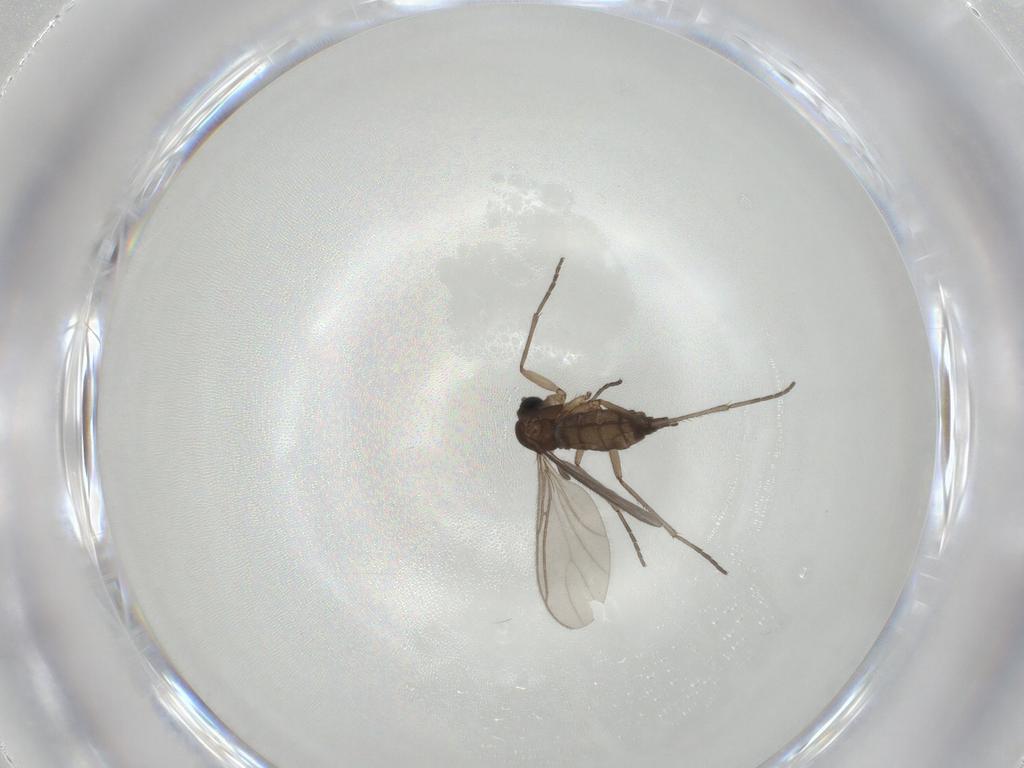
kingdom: Animalia
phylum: Arthropoda
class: Insecta
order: Diptera
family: Sciaridae
